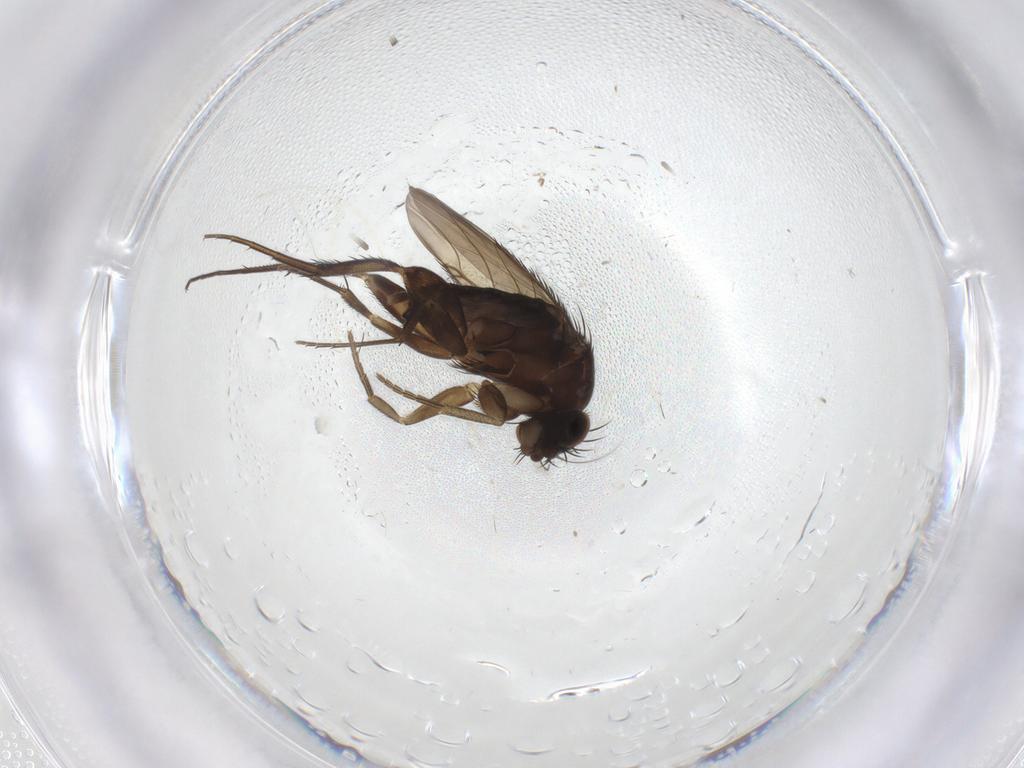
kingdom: Animalia
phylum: Arthropoda
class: Insecta
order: Diptera
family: Phoridae
